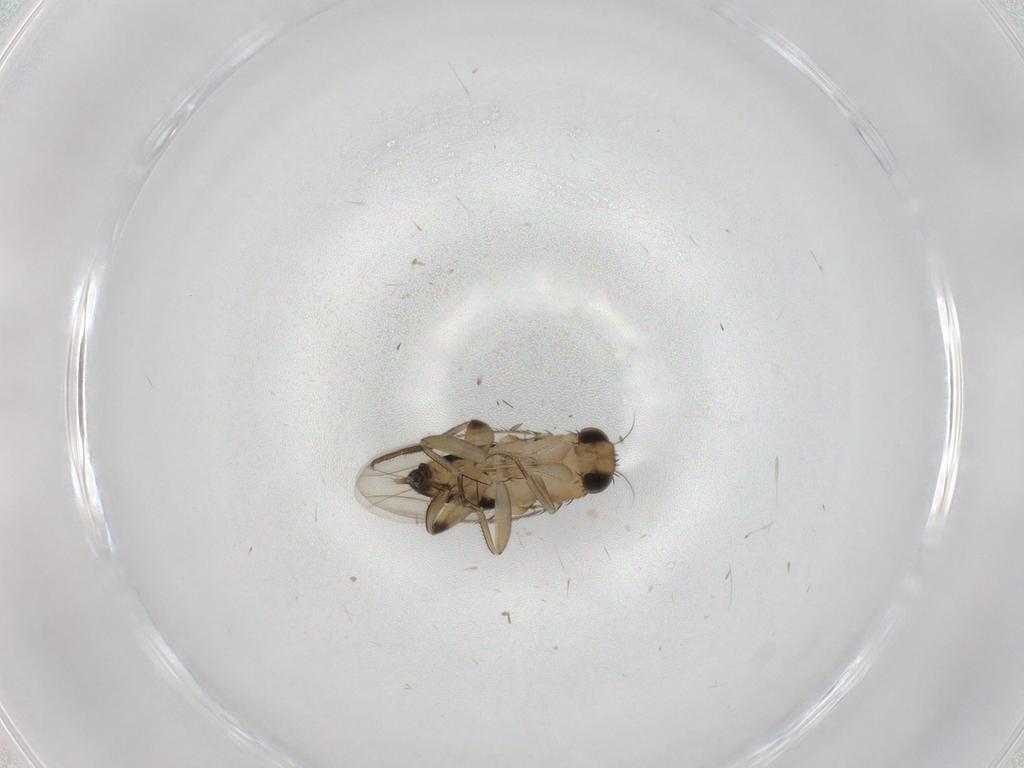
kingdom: Animalia
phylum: Arthropoda
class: Insecta
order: Diptera
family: Phoridae
